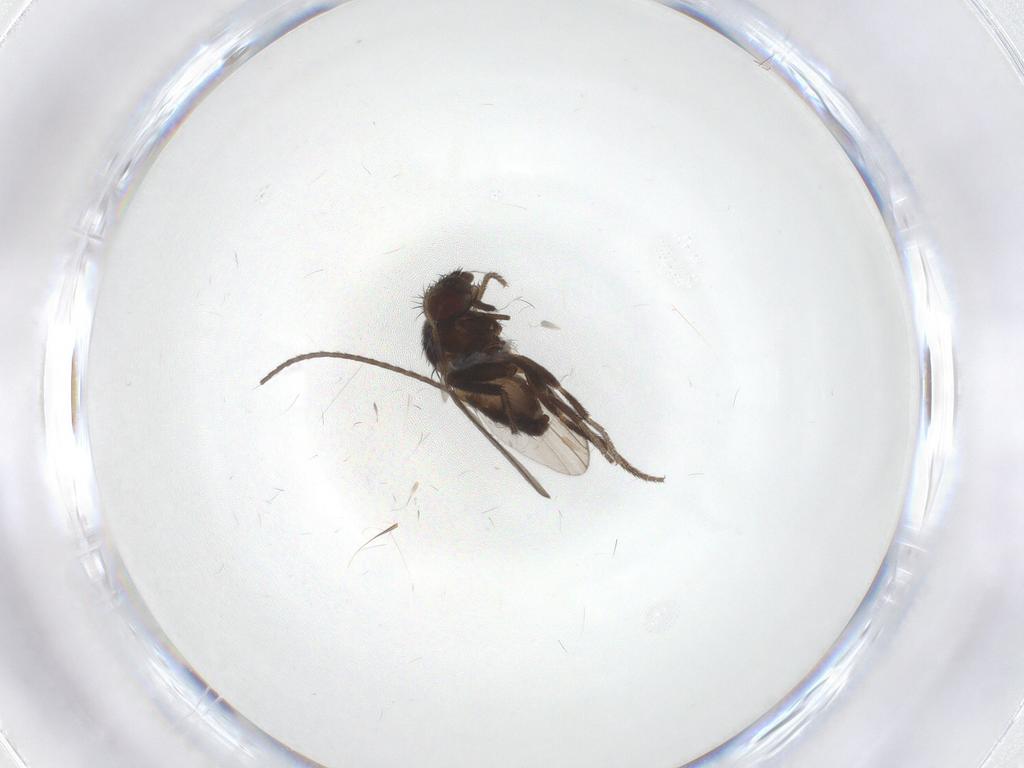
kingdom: Animalia
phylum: Arthropoda
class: Insecta
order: Diptera
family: Milichiidae
